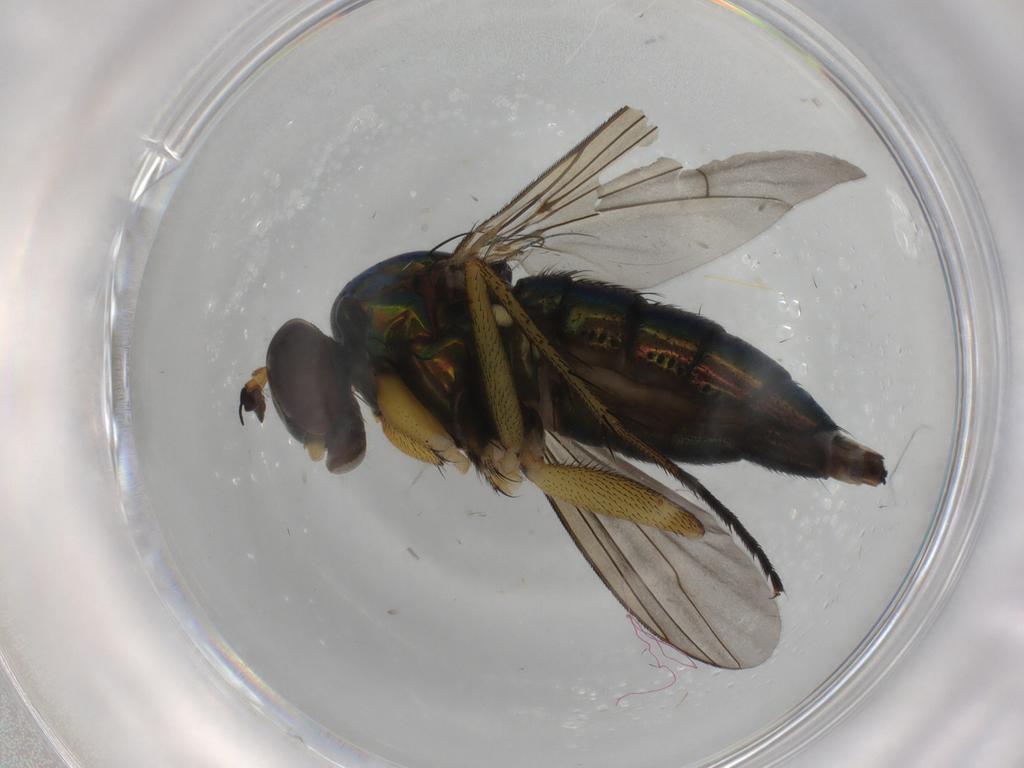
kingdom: Animalia
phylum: Arthropoda
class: Insecta
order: Diptera
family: Dolichopodidae
